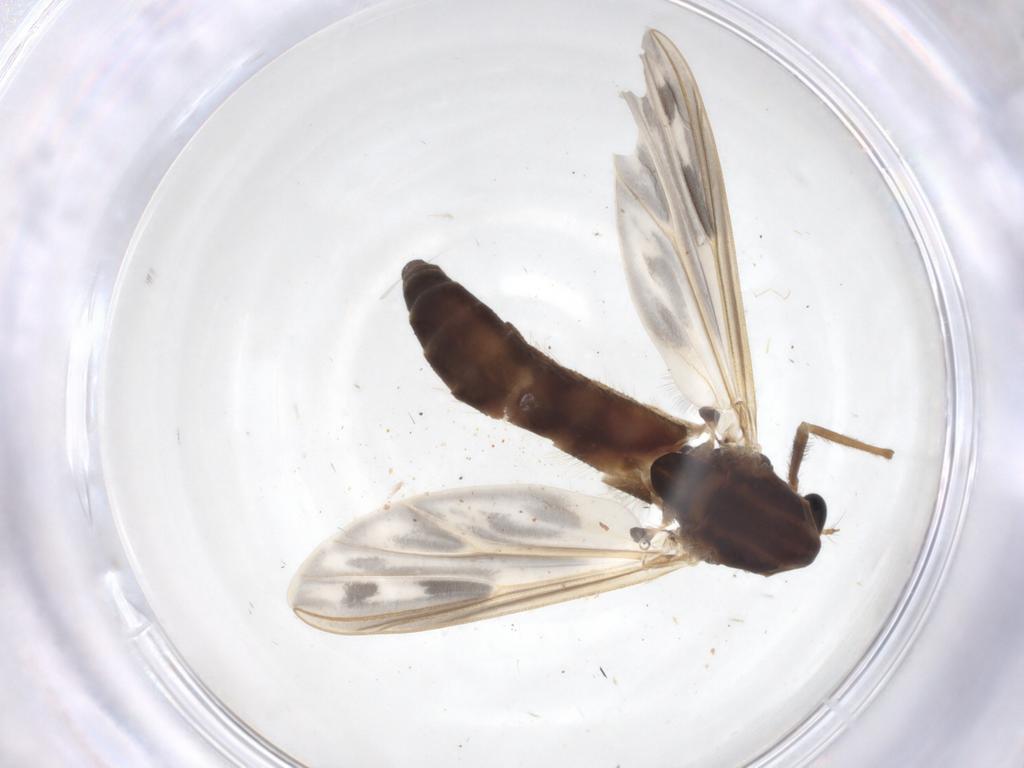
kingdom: Animalia
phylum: Arthropoda
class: Insecta
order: Diptera
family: Chironomidae
